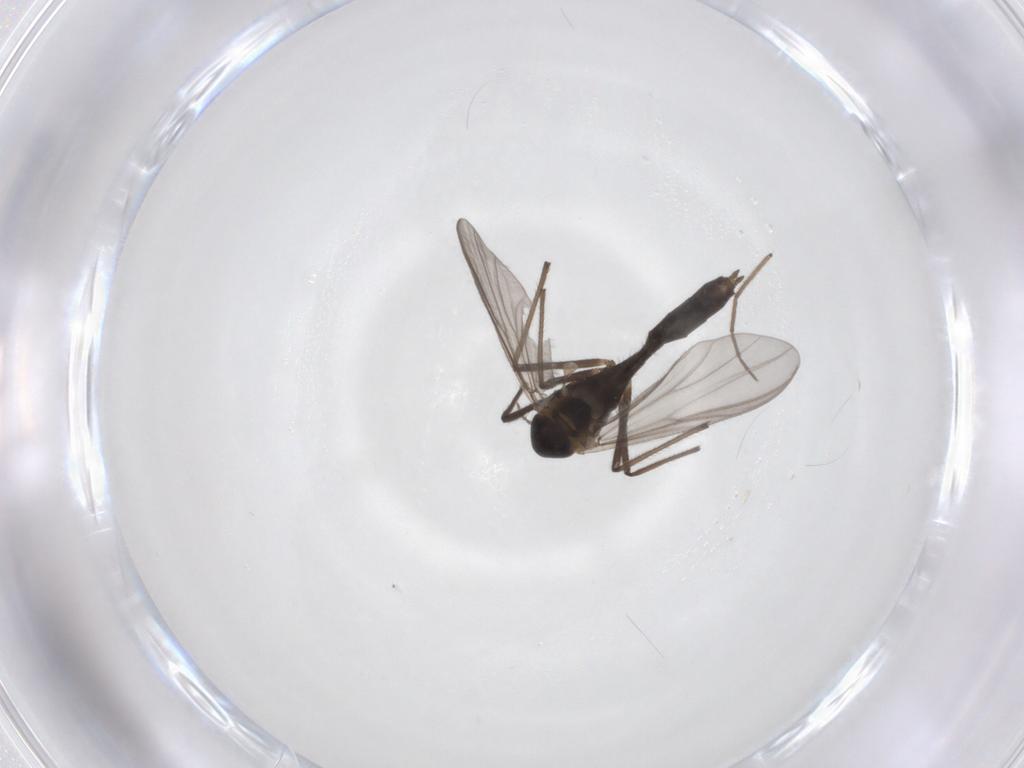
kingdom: Animalia
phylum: Arthropoda
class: Insecta
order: Diptera
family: Chironomidae
